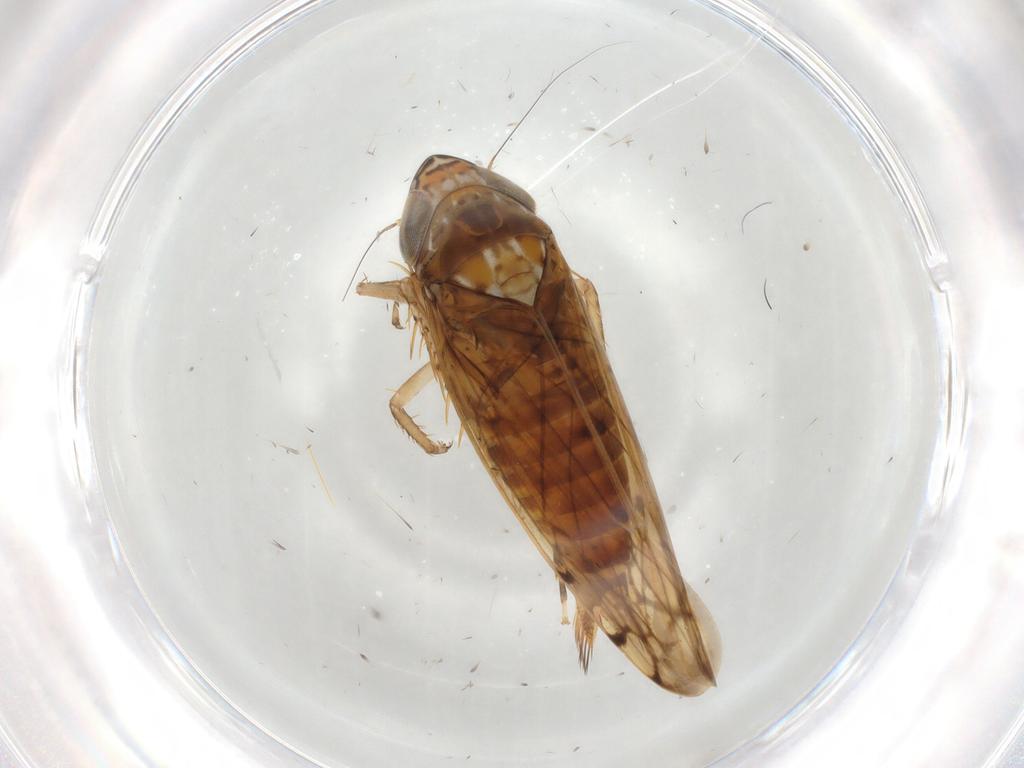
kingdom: Animalia
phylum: Arthropoda
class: Insecta
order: Hemiptera
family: Cicadellidae
